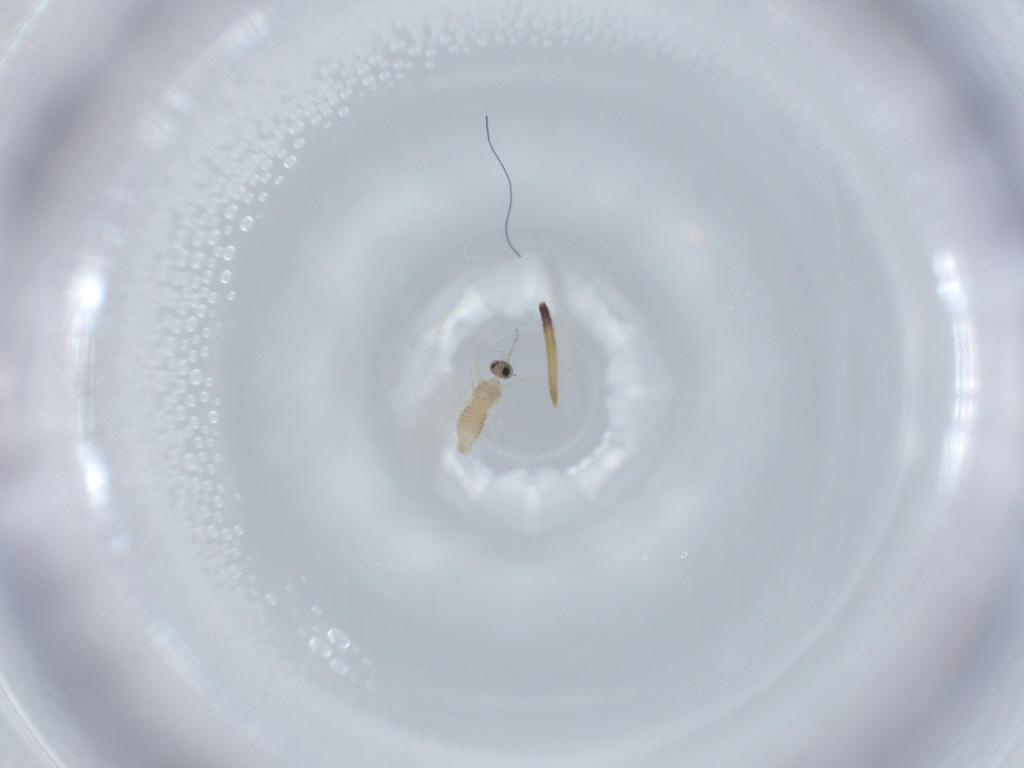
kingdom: Animalia
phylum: Arthropoda
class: Insecta
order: Diptera
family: Cecidomyiidae
